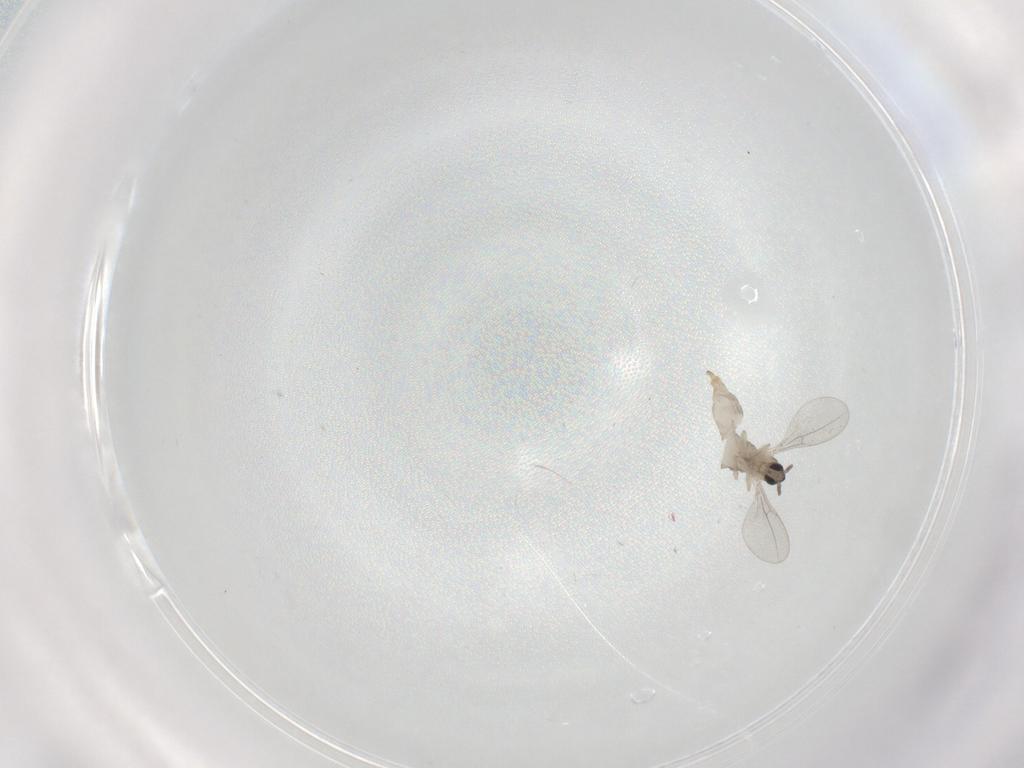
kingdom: Animalia
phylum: Arthropoda
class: Insecta
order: Diptera
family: Cecidomyiidae
